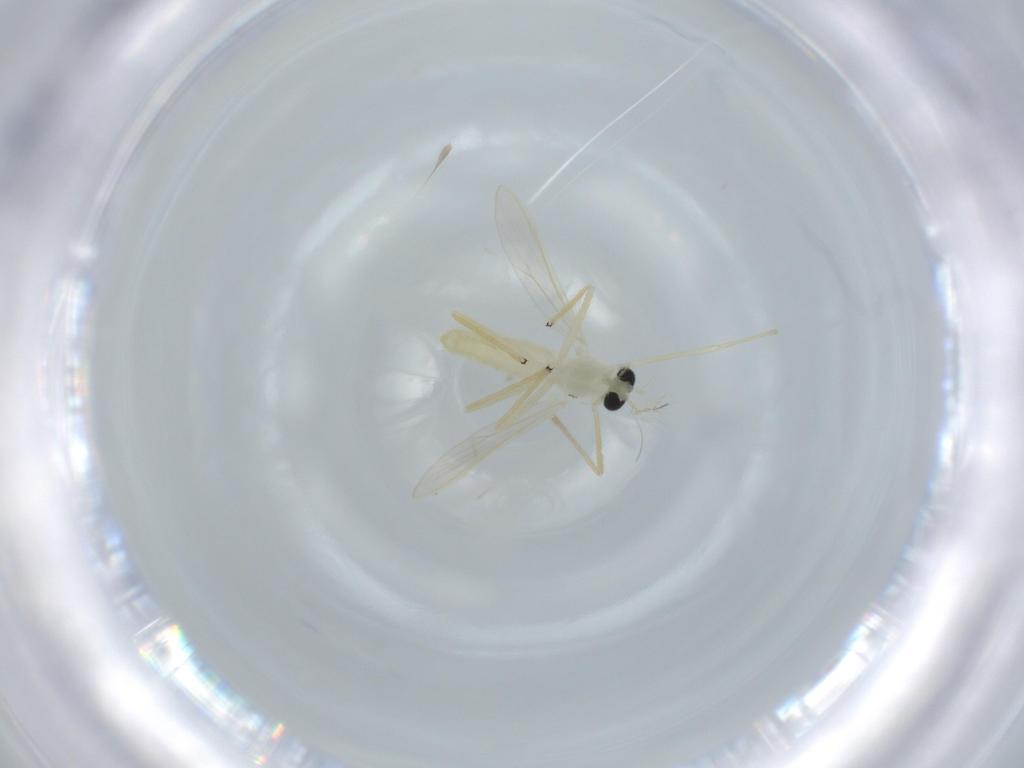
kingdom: Animalia
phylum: Arthropoda
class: Insecta
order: Diptera
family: Chironomidae
